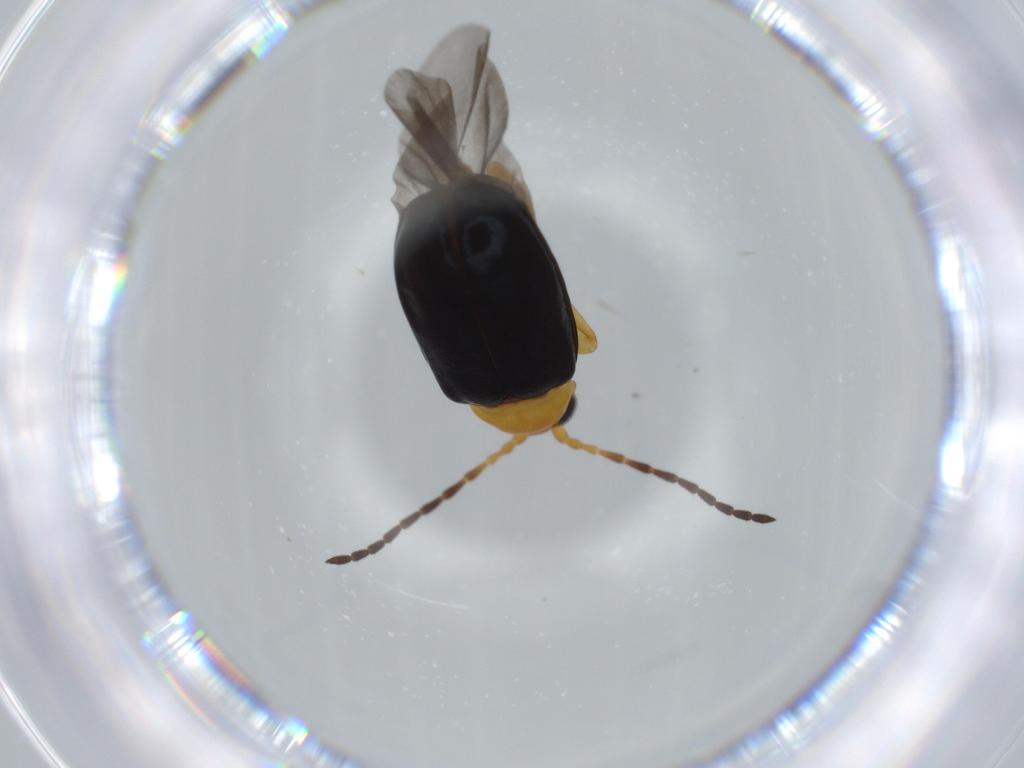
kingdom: Animalia
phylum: Arthropoda
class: Insecta
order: Coleoptera
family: Chrysomelidae
